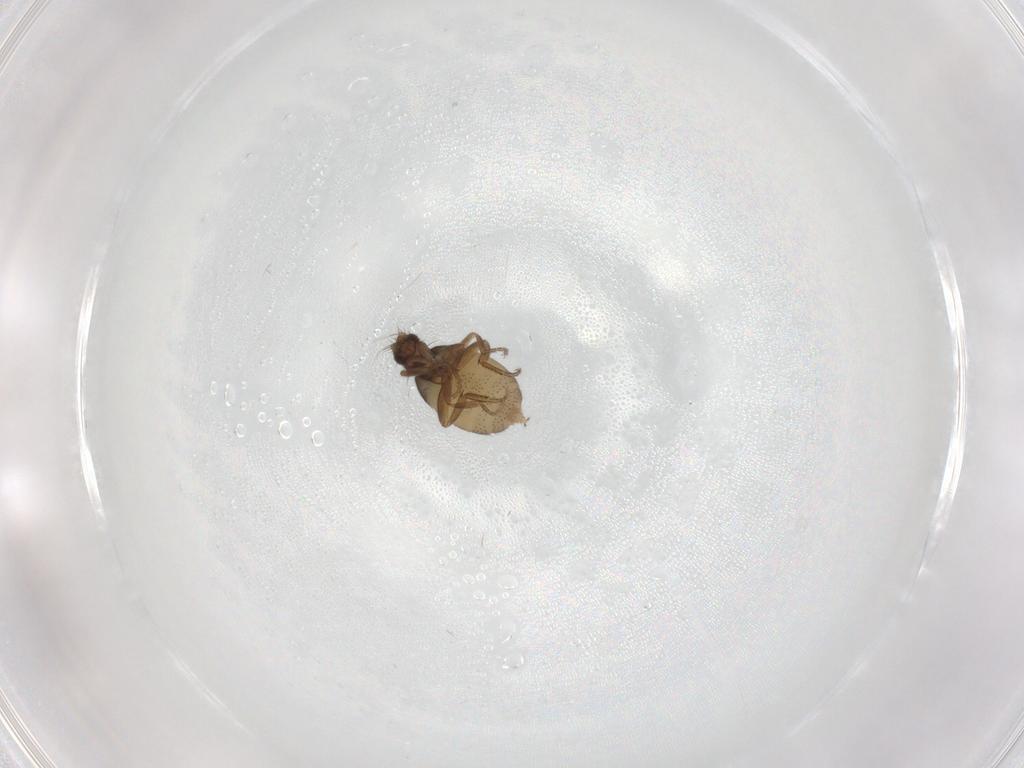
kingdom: Animalia
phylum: Arthropoda
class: Insecta
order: Diptera
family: Phoridae
